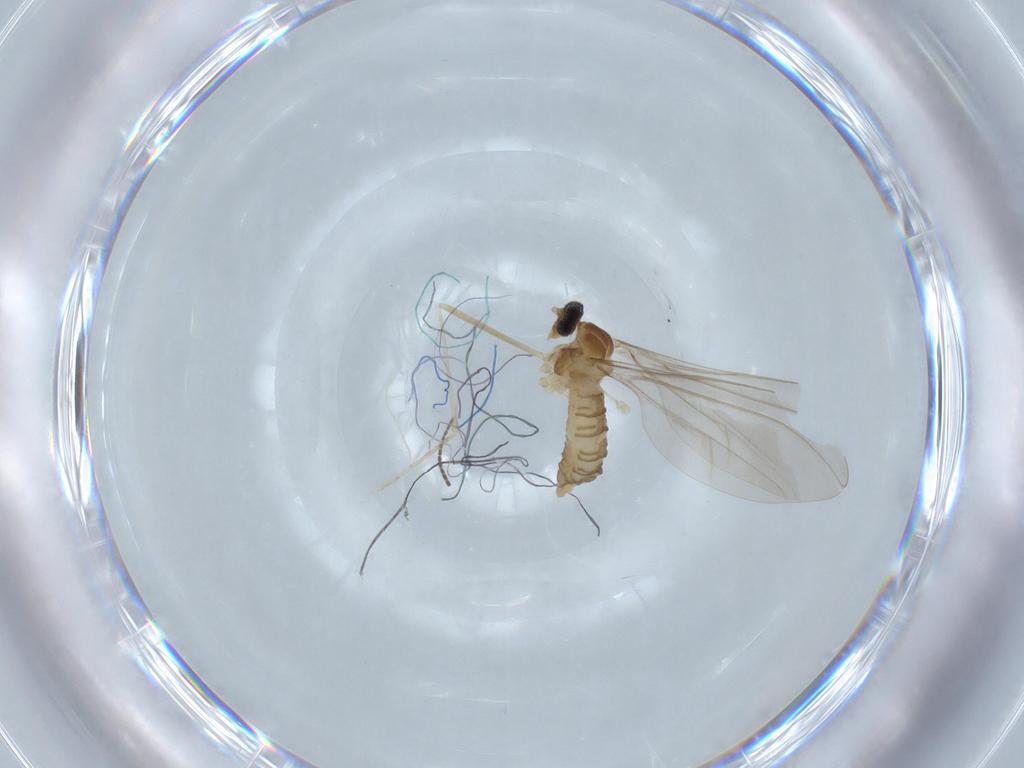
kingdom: Animalia
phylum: Arthropoda
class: Insecta
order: Diptera
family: Cecidomyiidae
